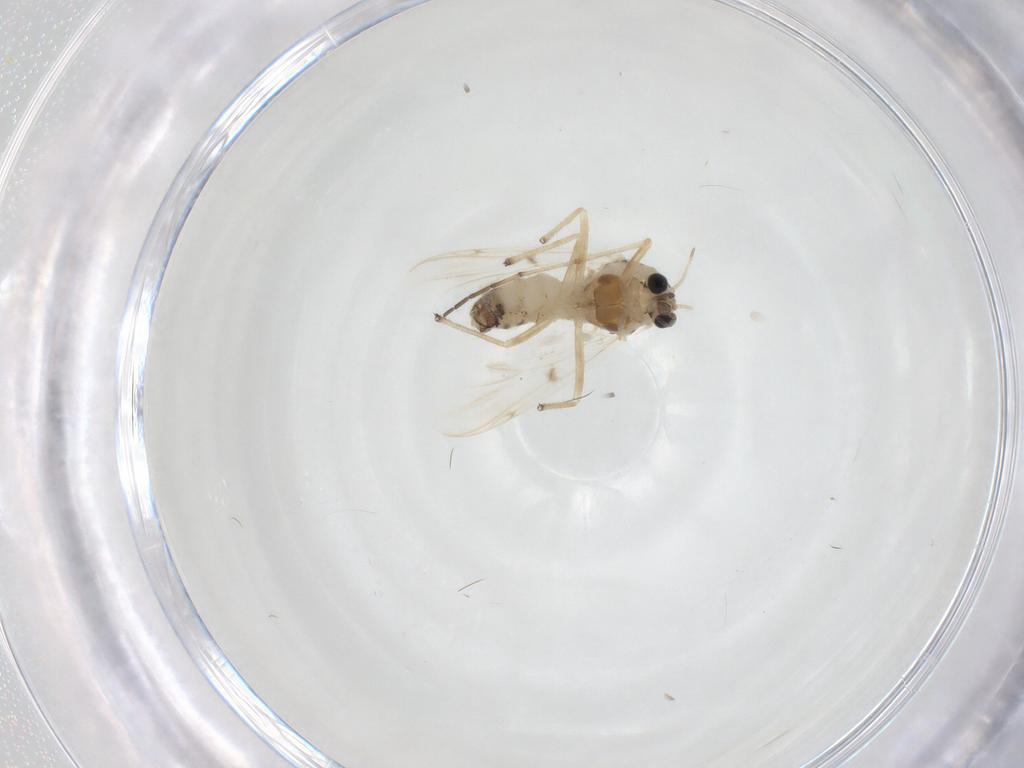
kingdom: Animalia
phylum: Arthropoda
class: Insecta
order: Diptera
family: Chironomidae
